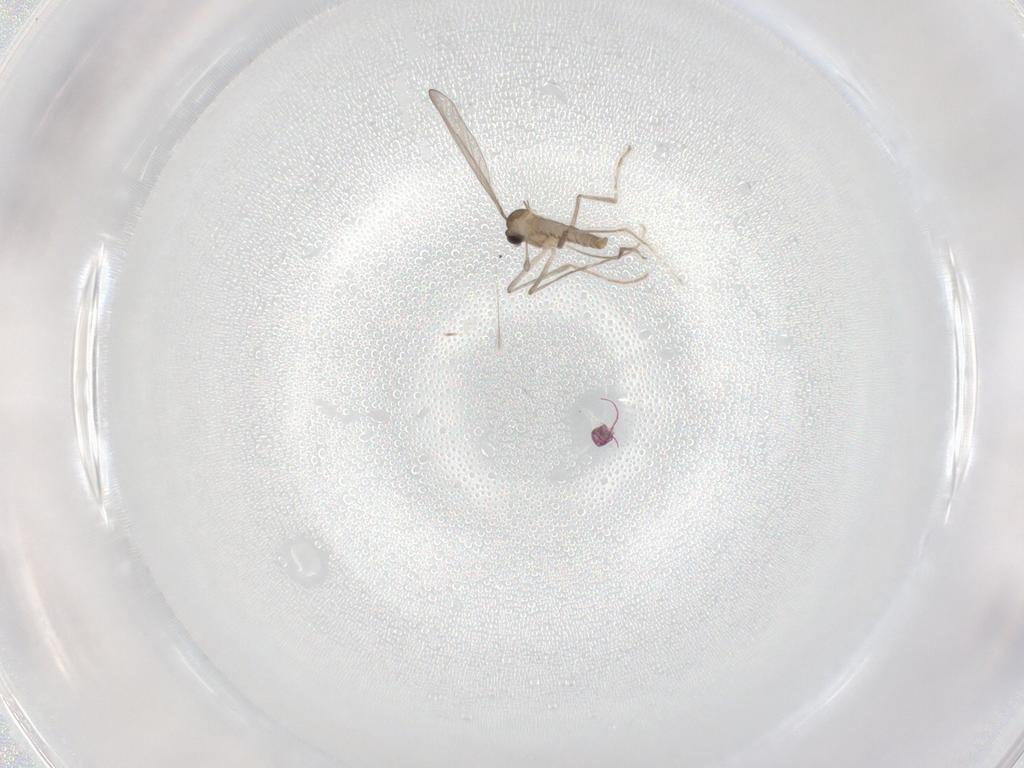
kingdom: Animalia
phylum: Arthropoda
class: Insecta
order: Diptera
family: Cecidomyiidae
